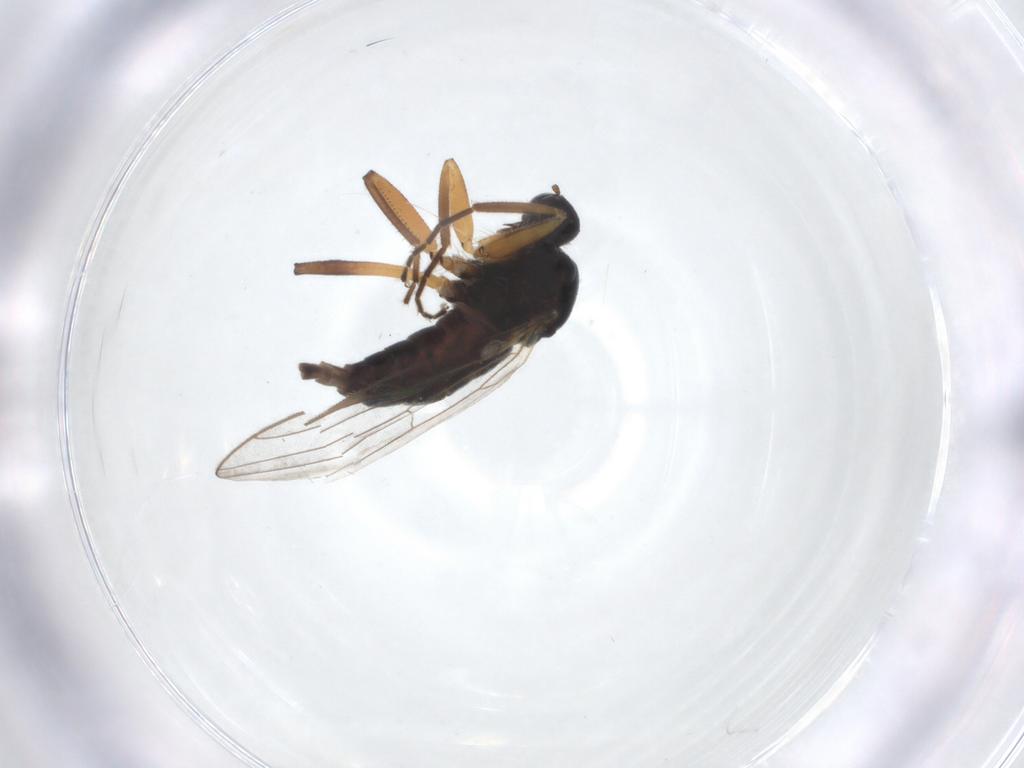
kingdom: Animalia
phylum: Arthropoda
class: Insecta
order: Diptera
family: Hybotidae
